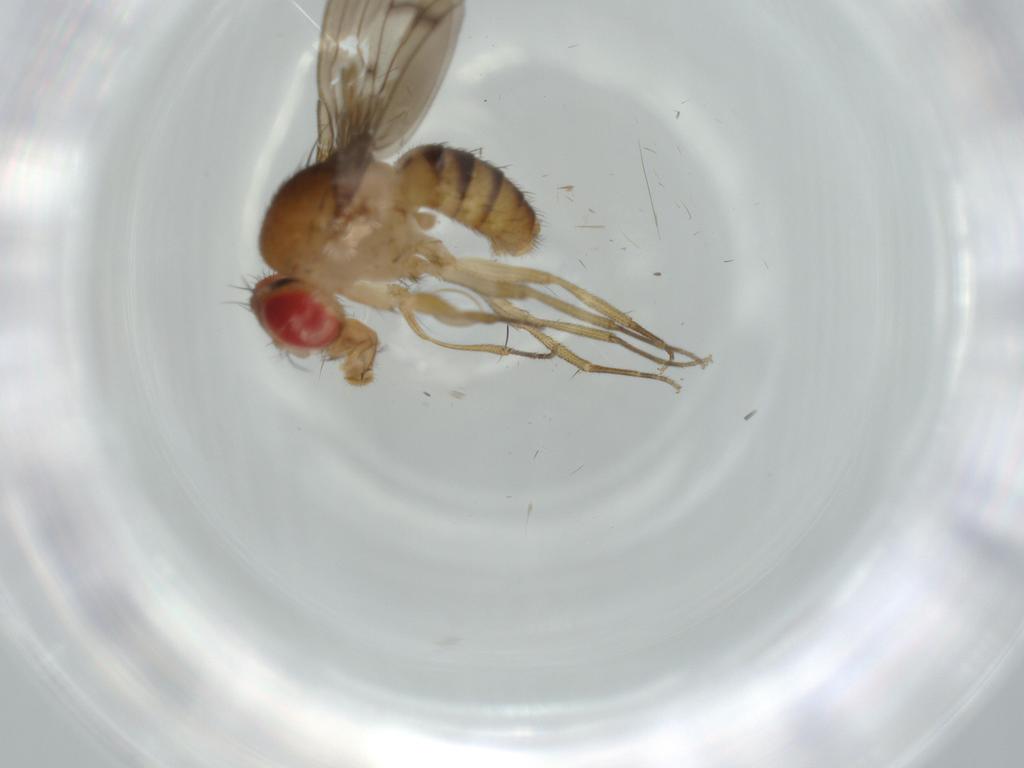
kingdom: Animalia
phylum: Arthropoda
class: Insecta
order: Diptera
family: Drosophilidae
